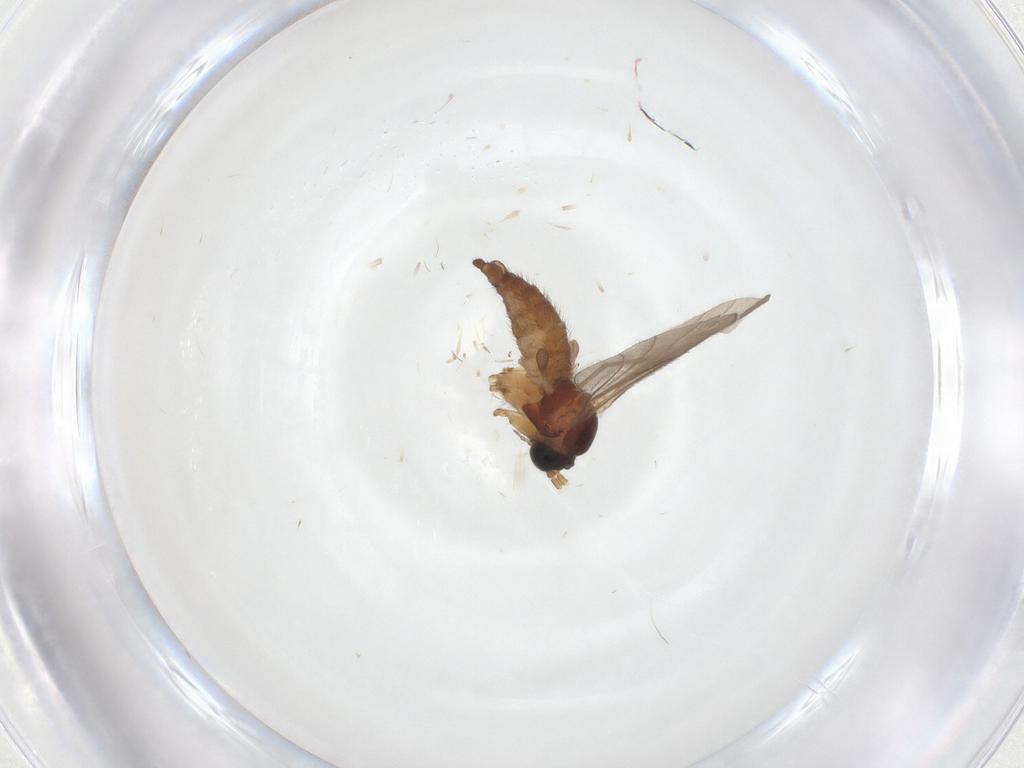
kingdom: Animalia
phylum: Arthropoda
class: Insecta
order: Diptera
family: Sciaridae
